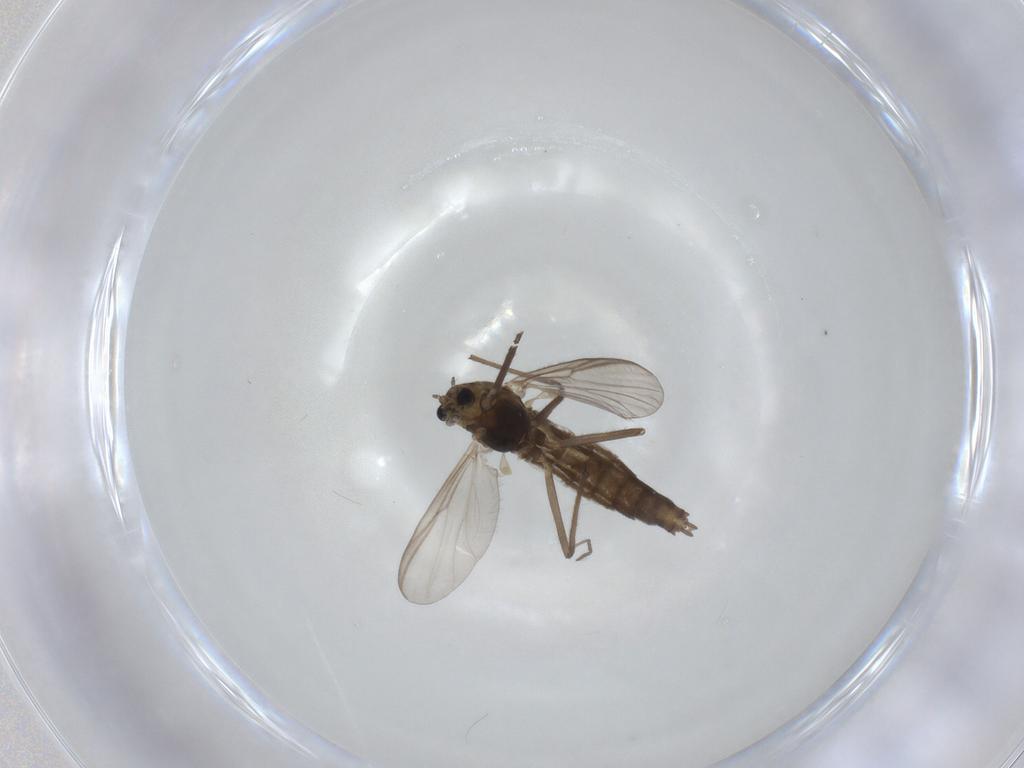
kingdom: Animalia
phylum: Arthropoda
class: Insecta
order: Diptera
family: Chironomidae
